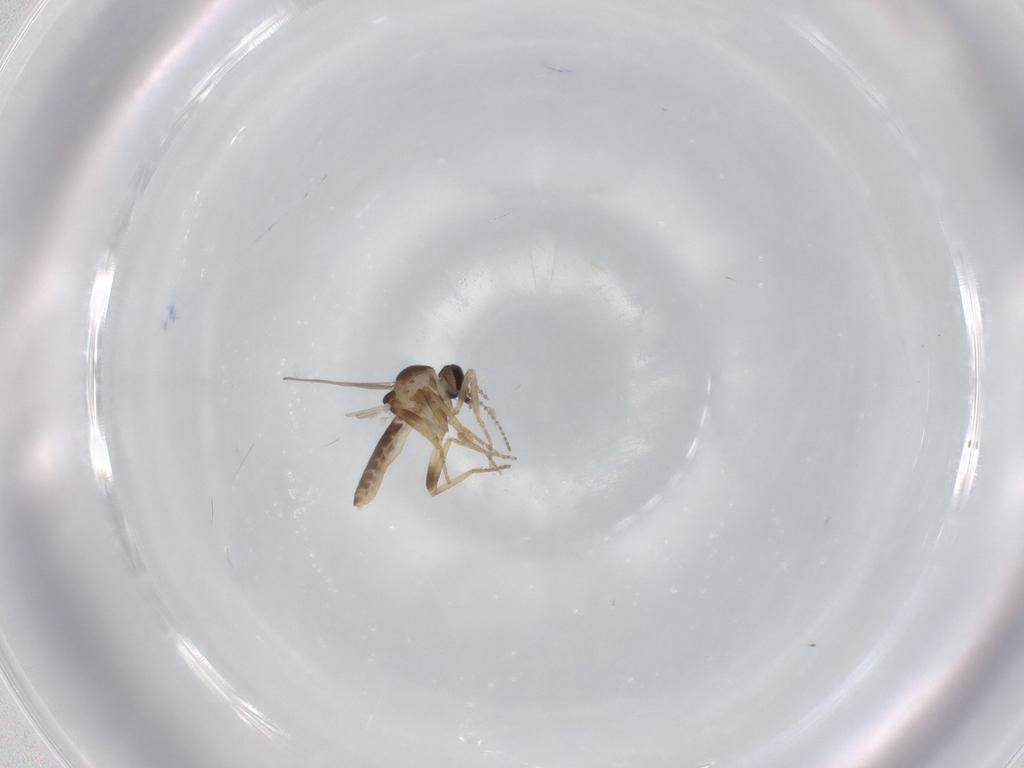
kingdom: Animalia
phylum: Arthropoda
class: Insecta
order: Diptera
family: Ceratopogonidae
